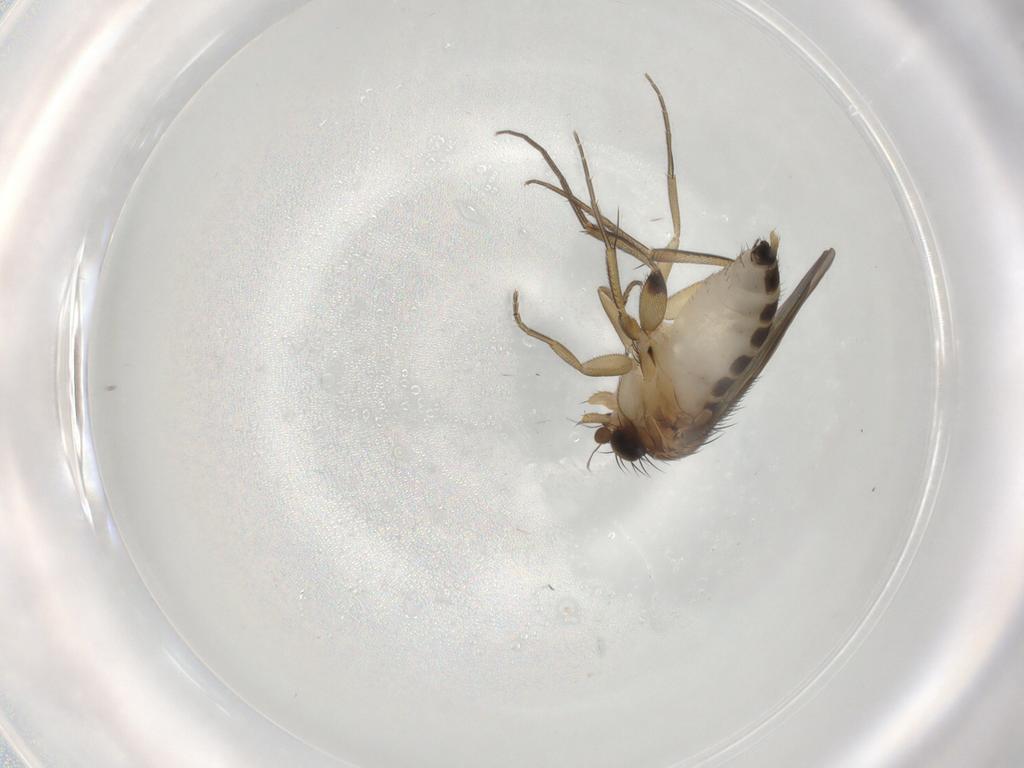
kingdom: Animalia
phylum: Arthropoda
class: Insecta
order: Diptera
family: Phoridae
